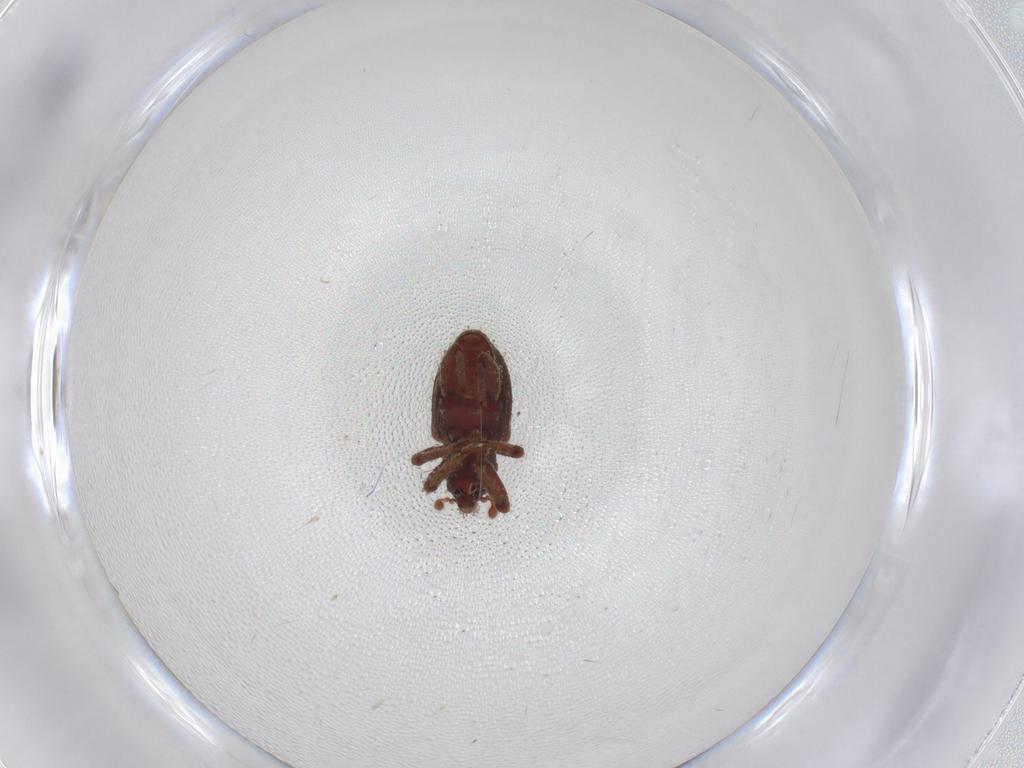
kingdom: Animalia
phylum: Arthropoda
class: Insecta
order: Coleoptera
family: Curculionidae
